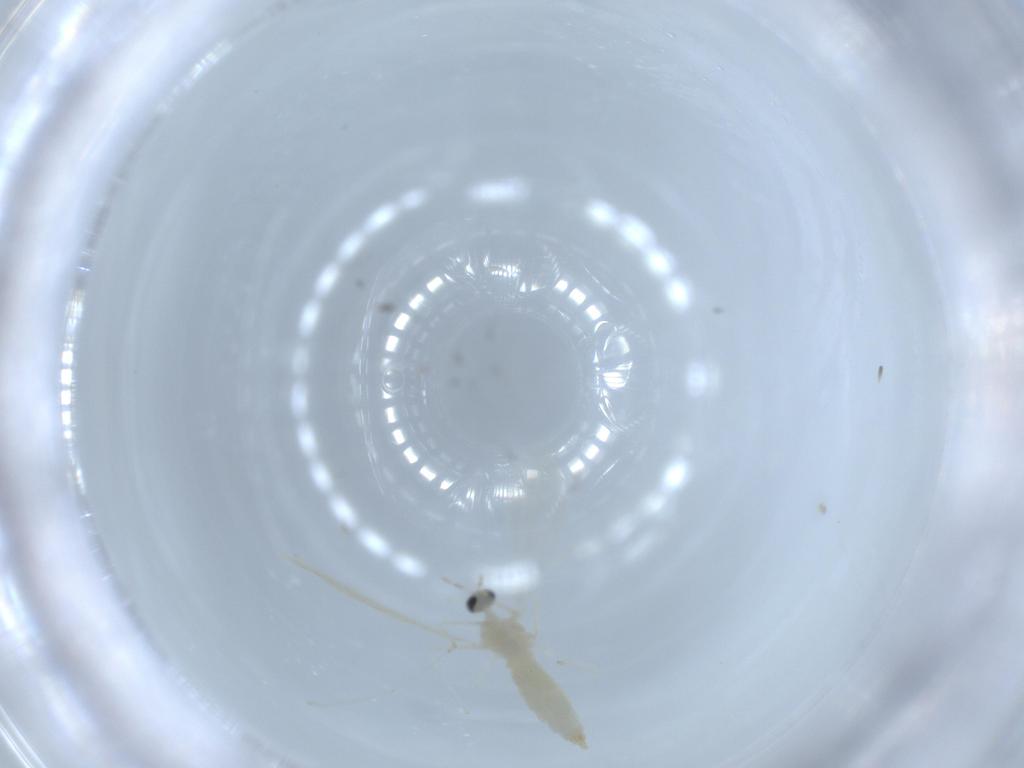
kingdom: Animalia
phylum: Arthropoda
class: Insecta
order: Diptera
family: Cecidomyiidae
